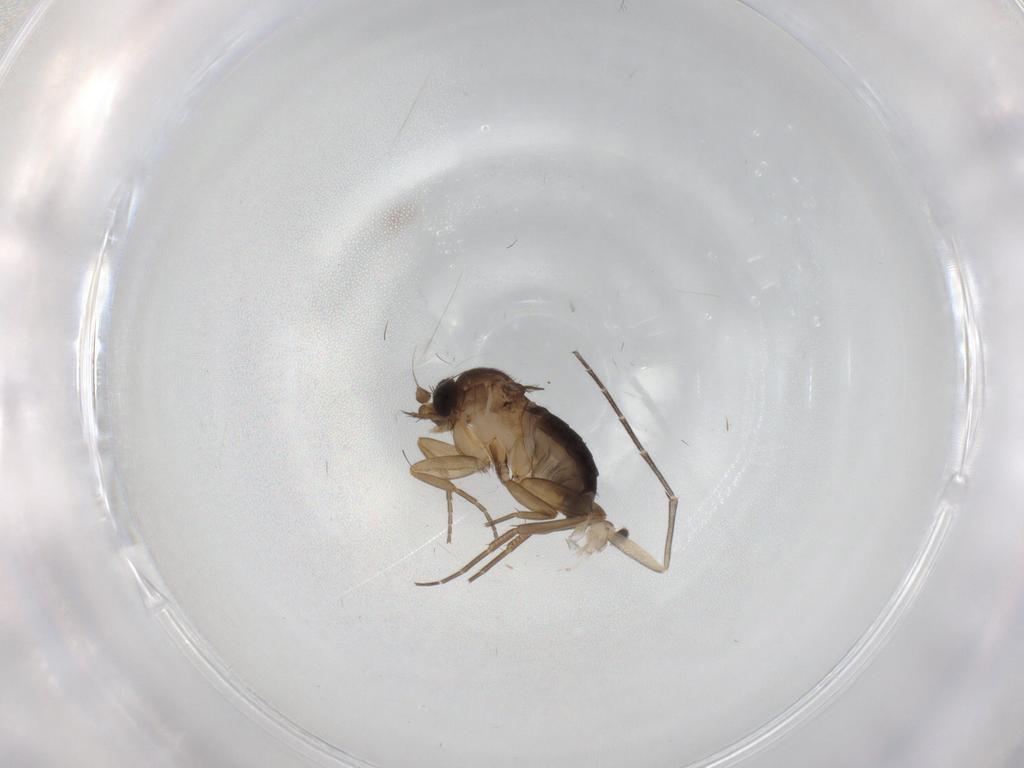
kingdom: Animalia
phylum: Arthropoda
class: Insecta
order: Diptera
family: Phoridae
